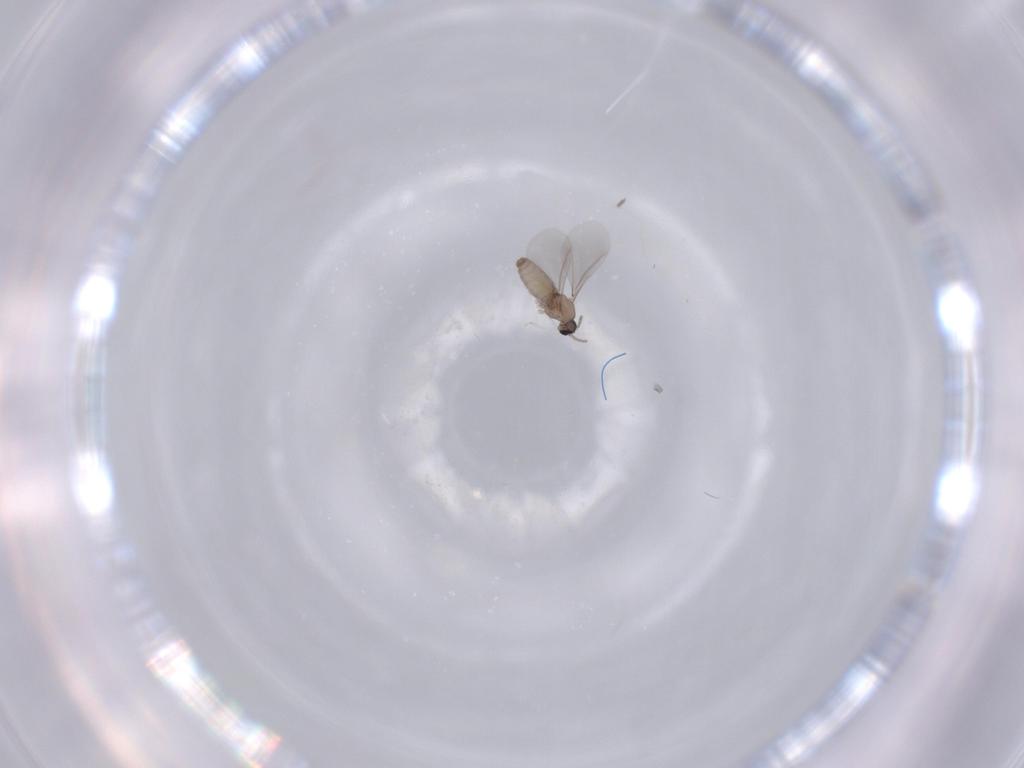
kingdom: Animalia
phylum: Arthropoda
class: Insecta
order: Diptera
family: Cecidomyiidae
